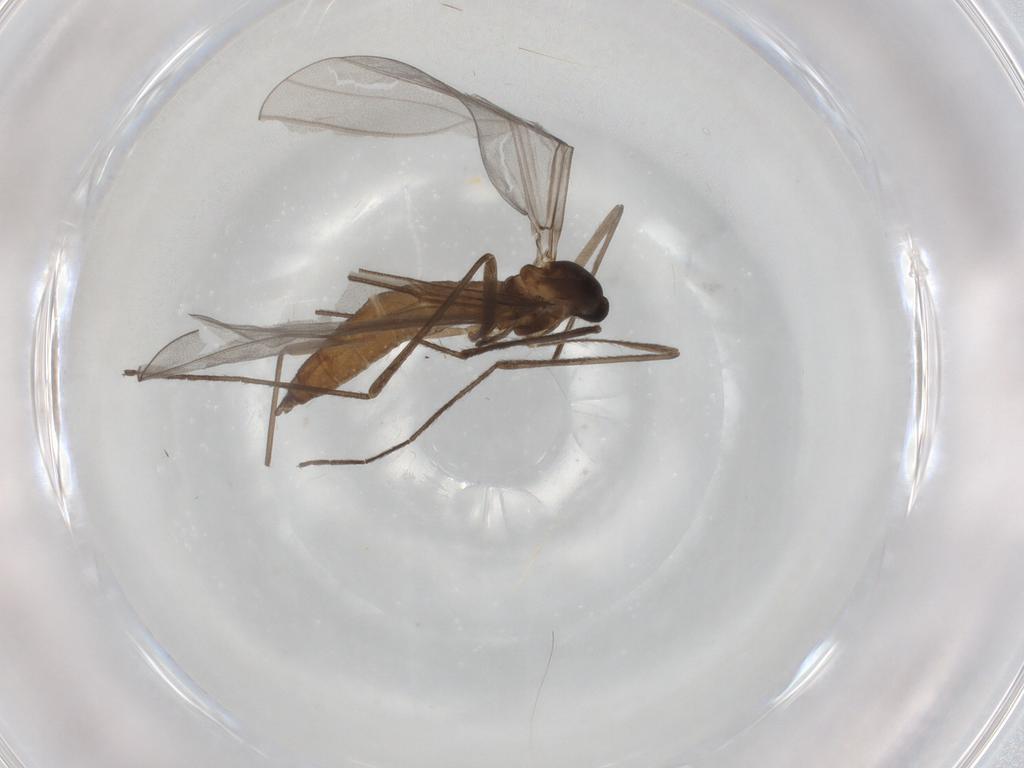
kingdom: Animalia
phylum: Arthropoda
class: Insecta
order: Diptera
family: Cecidomyiidae
